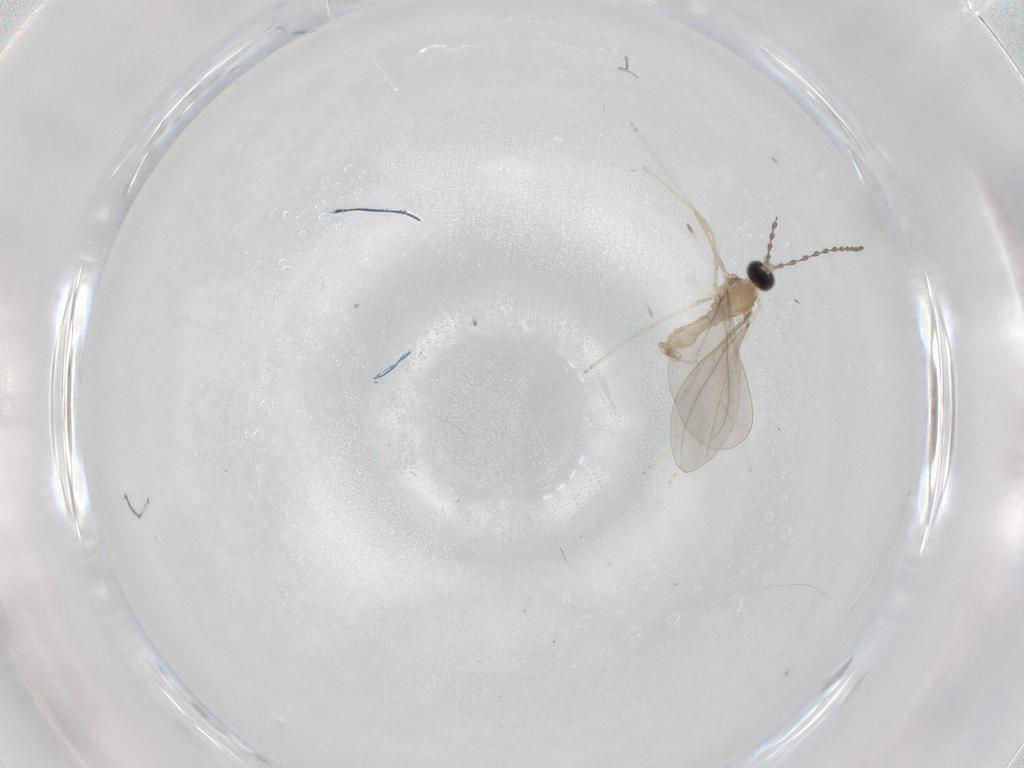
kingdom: Animalia
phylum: Arthropoda
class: Insecta
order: Diptera
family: Cecidomyiidae
